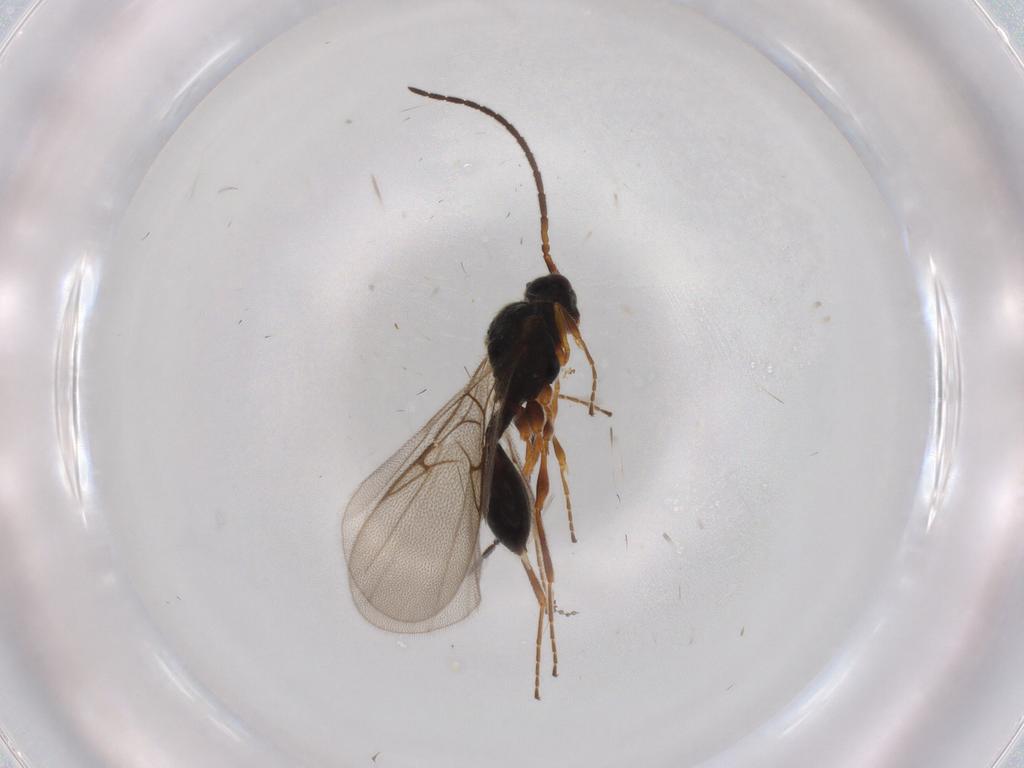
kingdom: Animalia
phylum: Arthropoda
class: Insecta
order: Hymenoptera
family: Diapriidae
